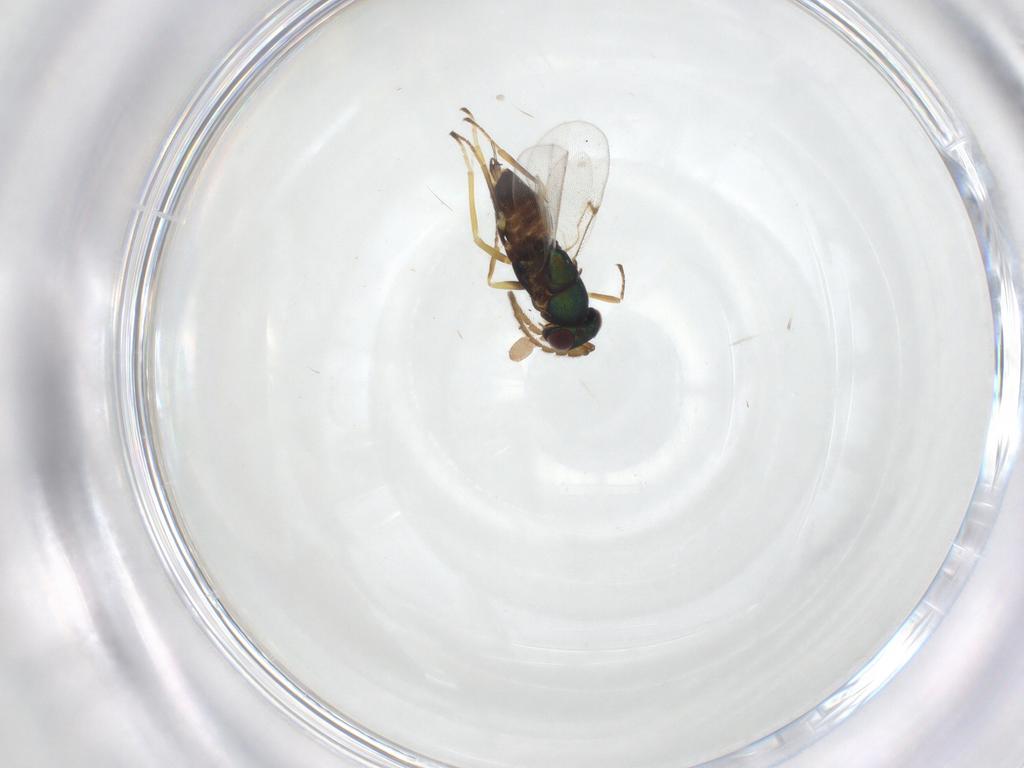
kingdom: Animalia
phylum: Arthropoda
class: Insecta
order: Hymenoptera
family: Encyrtidae
